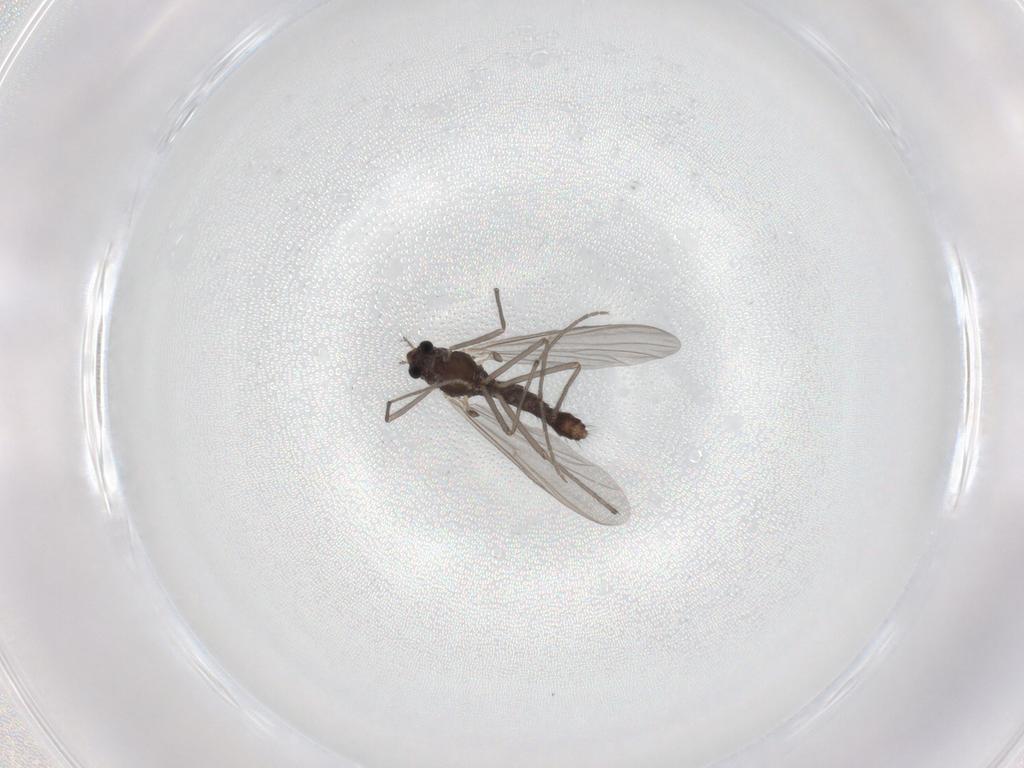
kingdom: Animalia
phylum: Arthropoda
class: Insecta
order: Diptera
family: Chironomidae
